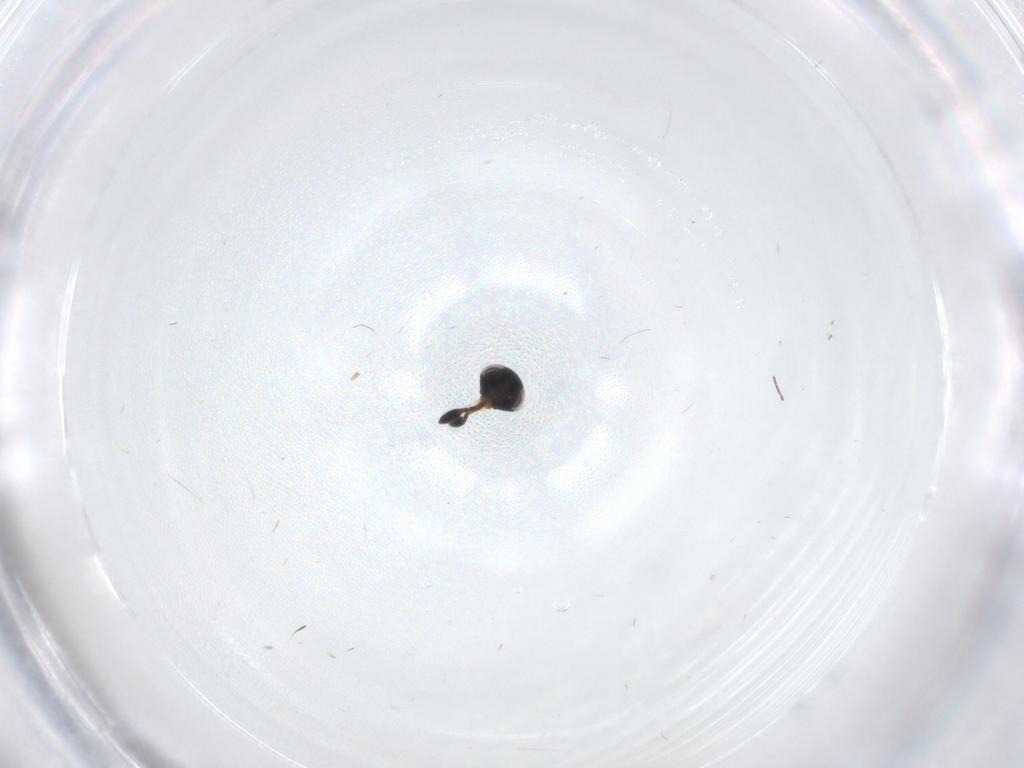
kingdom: Animalia
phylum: Arthropoda
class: Insecta
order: Hymenoptera
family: Scelionidae
